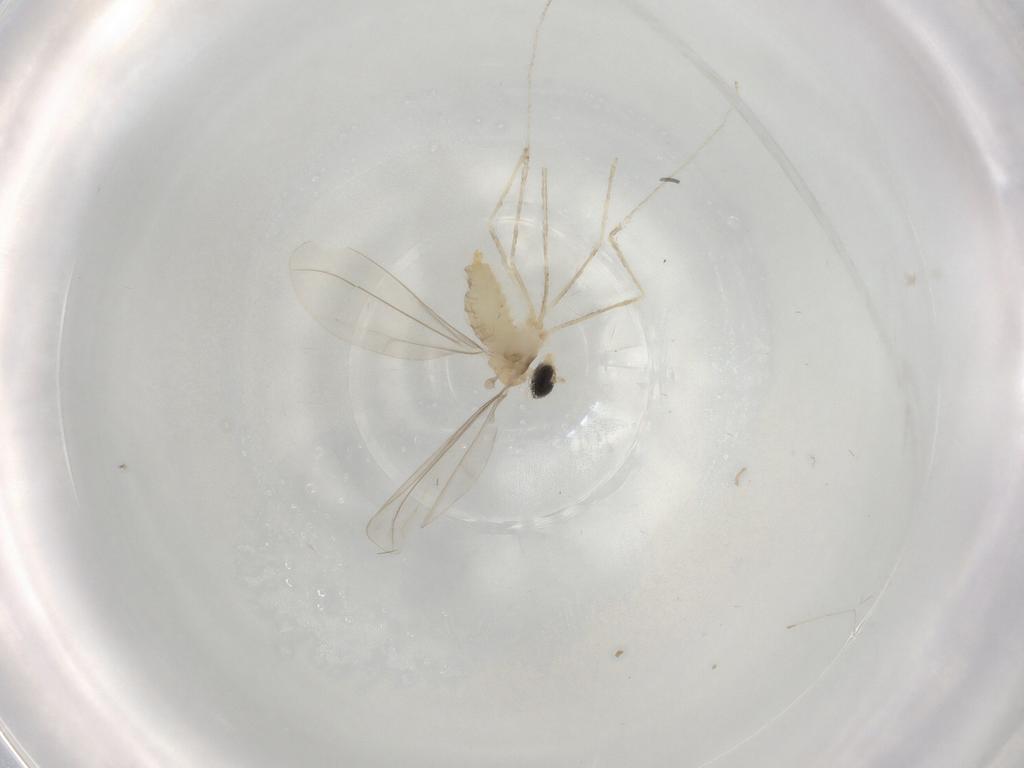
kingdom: Animalia
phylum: Arthropoda
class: Insecta
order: Diptera
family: Cecidomyiidae
